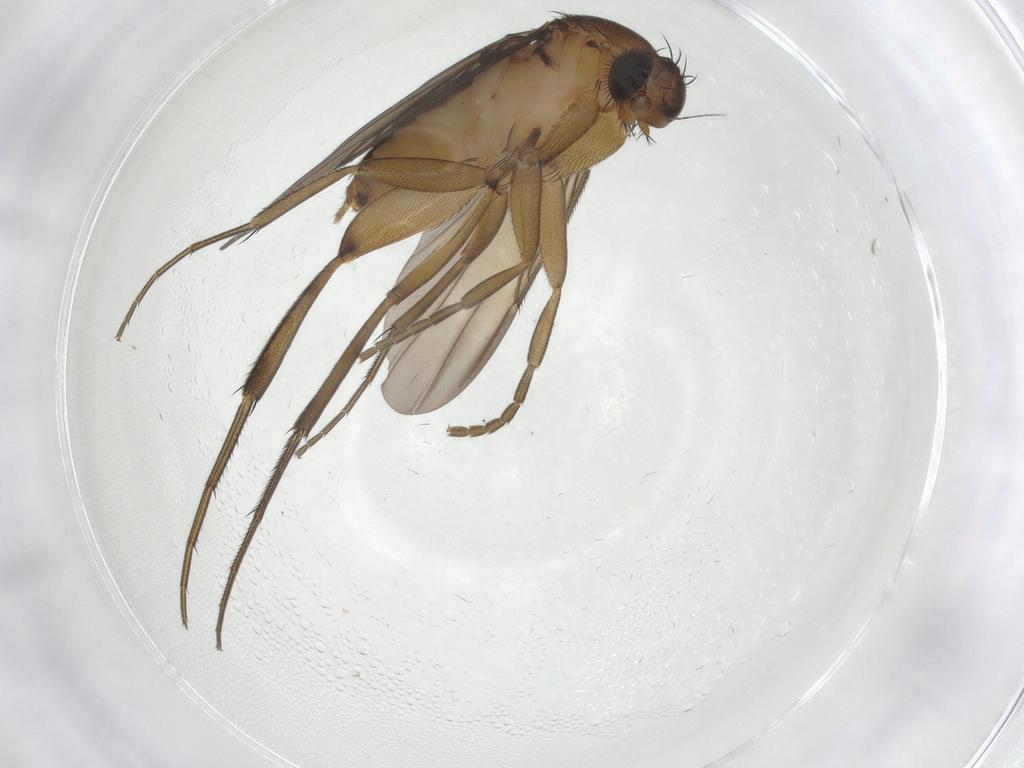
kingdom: Animalia
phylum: Arthropoda
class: Insecta
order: Diptera
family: Phoridae
